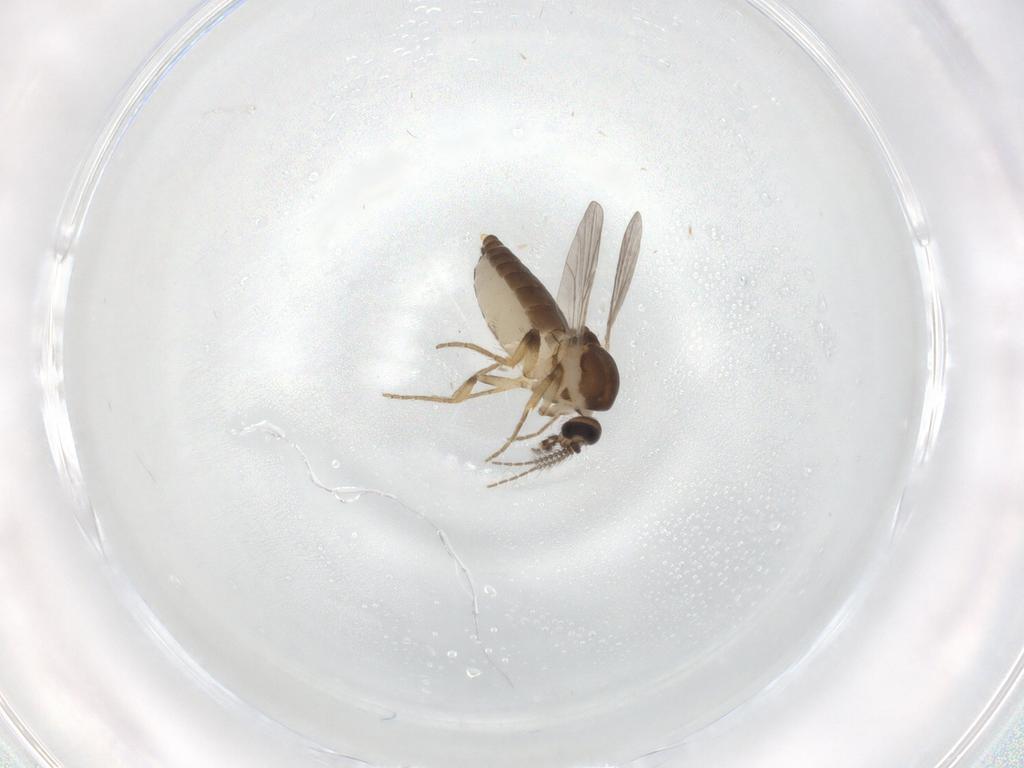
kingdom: Animalia
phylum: Arthropoda
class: Insecta
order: Diptera
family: Ceratopogonidae
